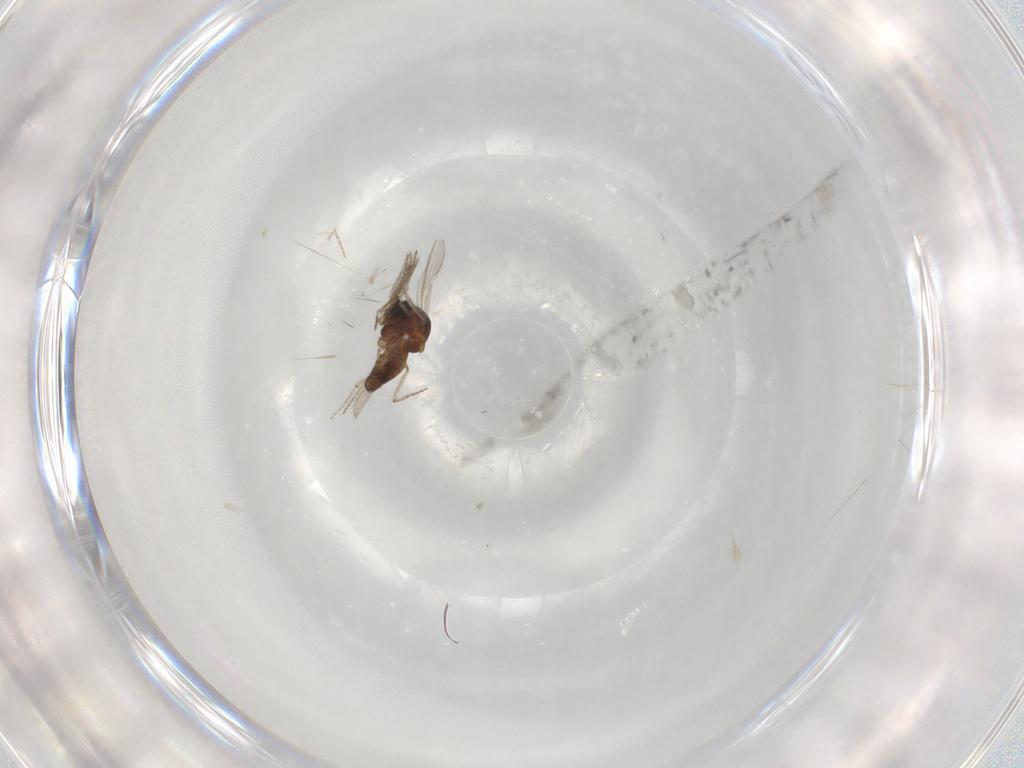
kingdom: Animalia
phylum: Arthropoda
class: Insecta
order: Diptera
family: Ceratopogonidae
